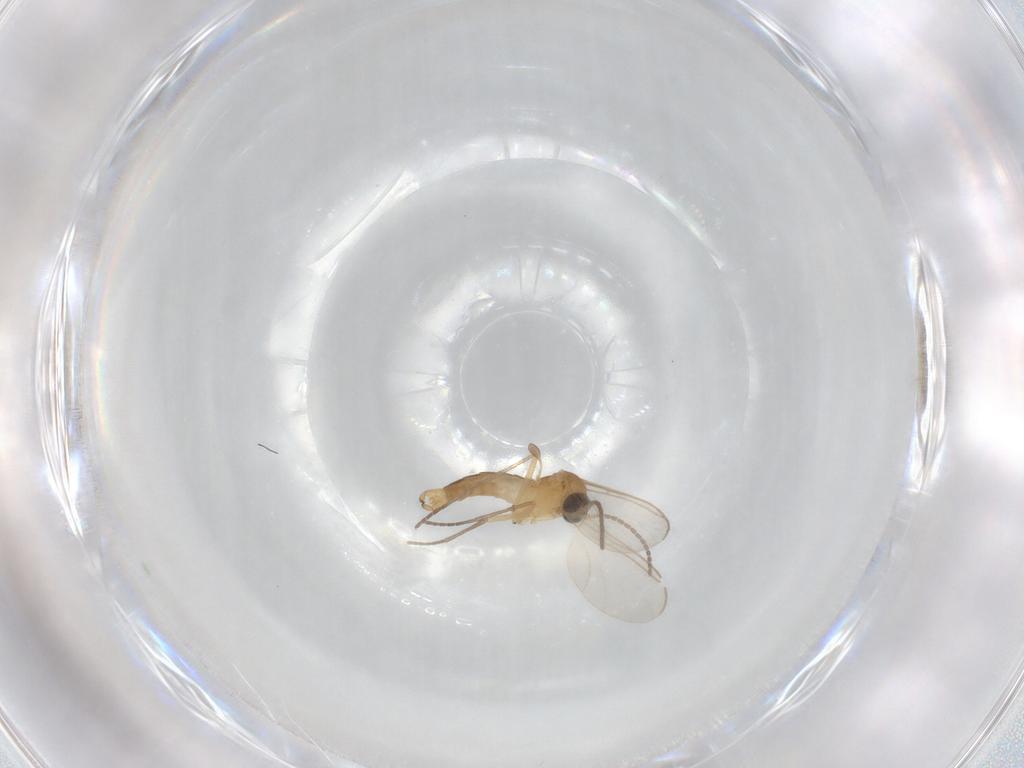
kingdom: Animalia
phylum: Arthropoda
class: Insecta
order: Diptera
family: Sciaridae
